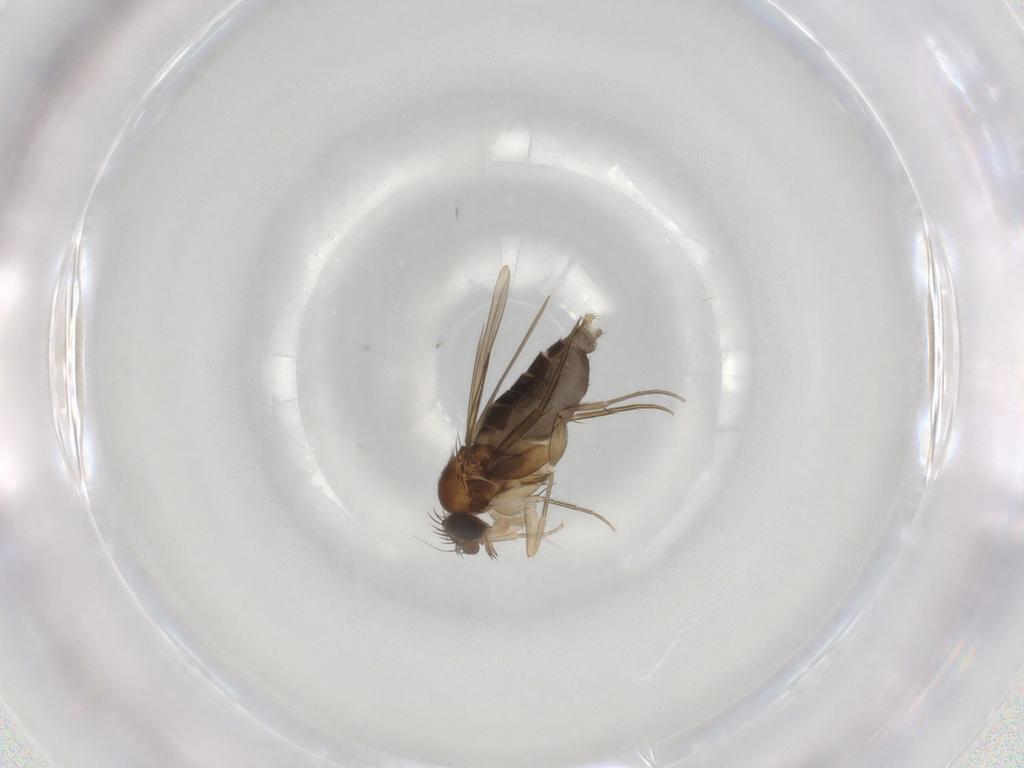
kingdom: Animalia
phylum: Arthropoda
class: Insecta
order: Diptera
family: Phoridae
